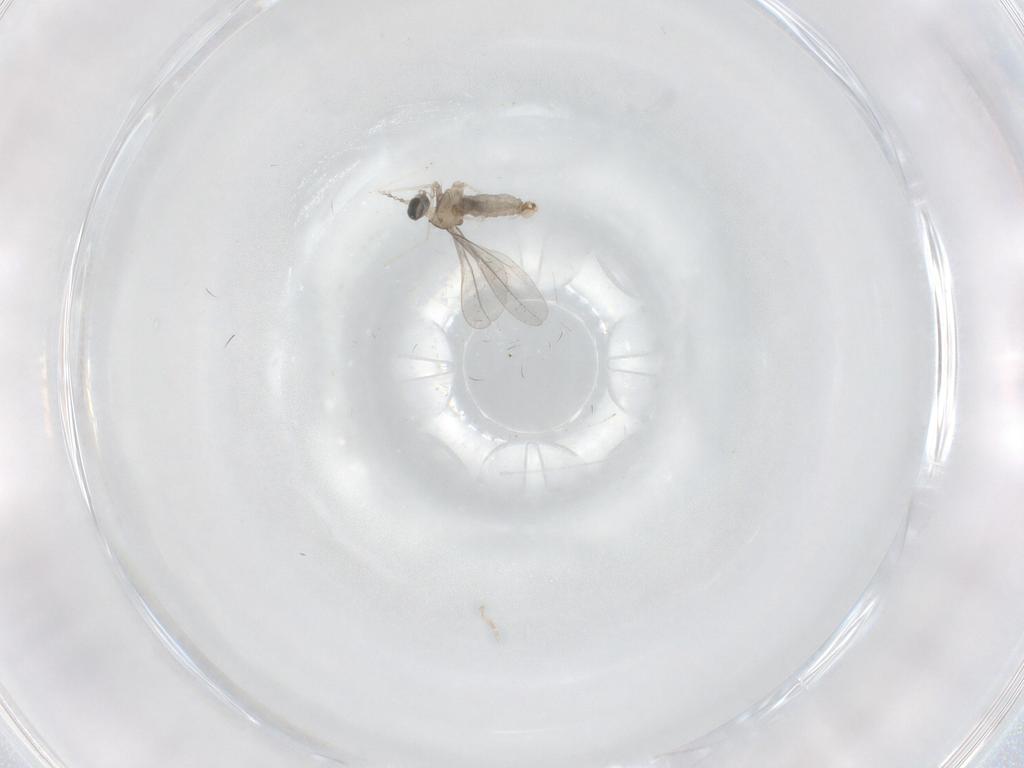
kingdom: Animalia
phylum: Arthropoda
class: Insecta
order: Diptera
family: Cecidomyiidae
